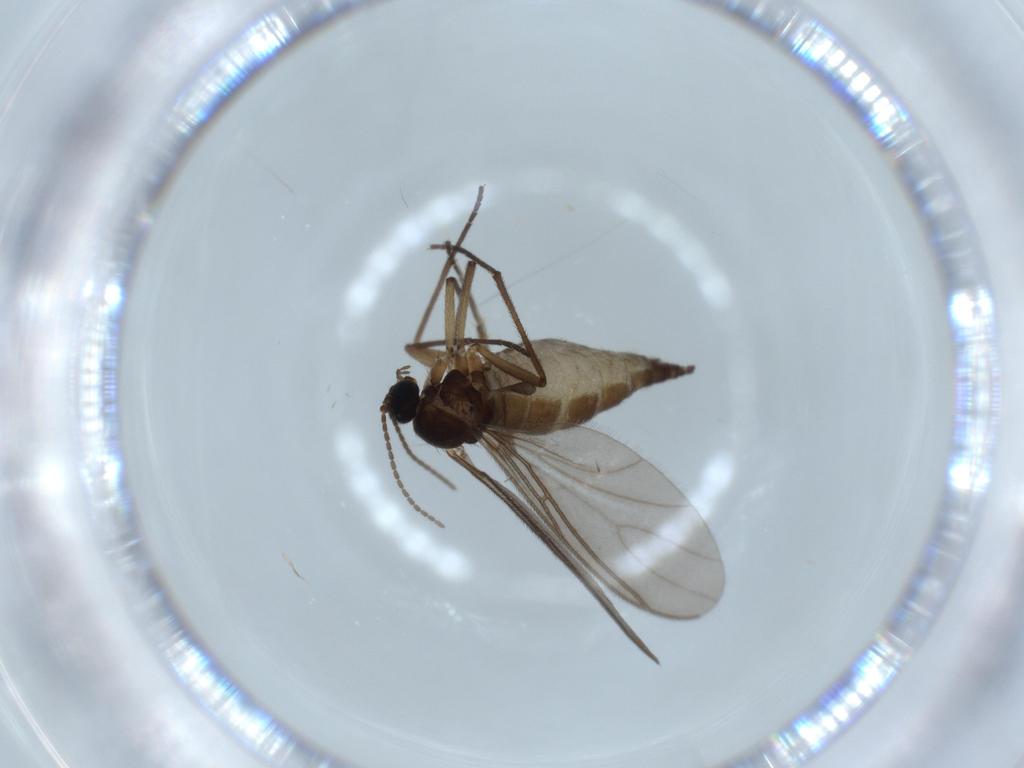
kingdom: Animalia
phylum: Arthropoda
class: Insecta
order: Diptera
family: Sciaridae
